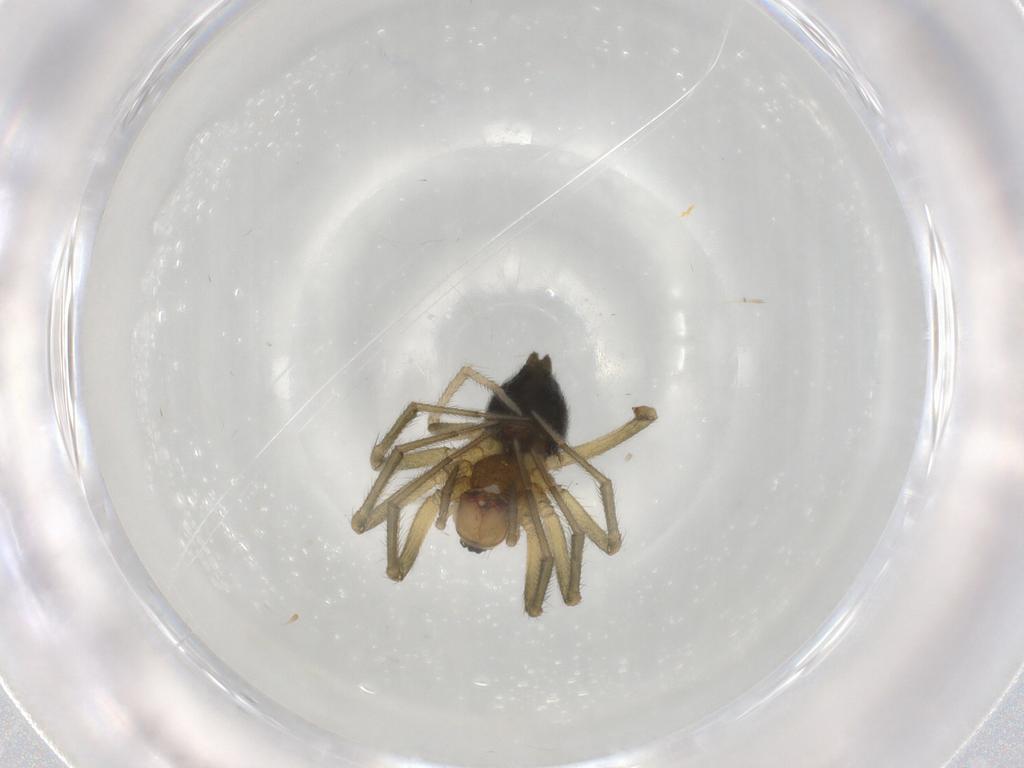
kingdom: Animalia
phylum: Arthropoda
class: Arachnida
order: Araneae
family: Linyphiidae
